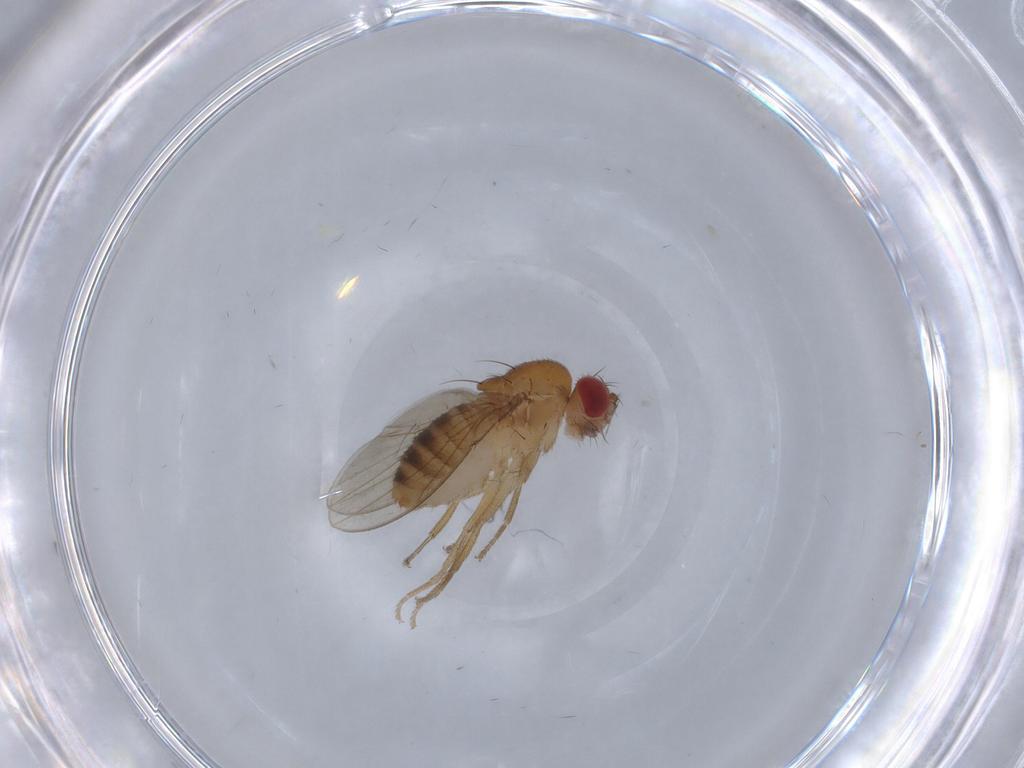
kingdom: Animalia
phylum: Arthropoda
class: Insecta
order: Diptera
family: Drosophilidae
